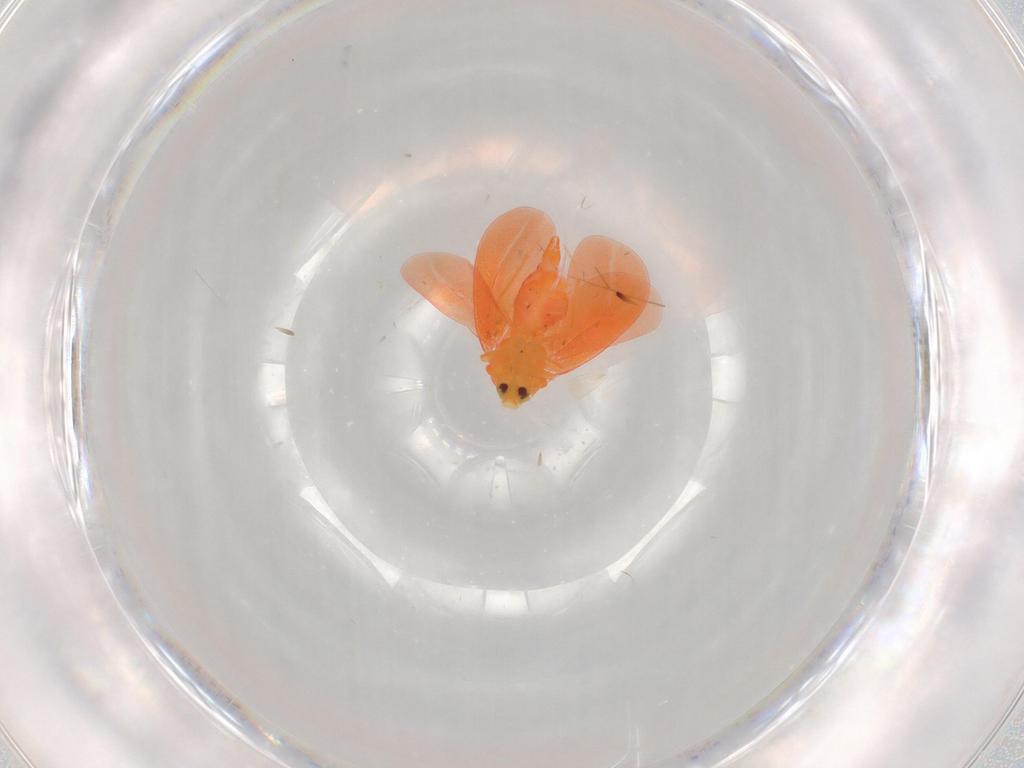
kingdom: Animalia
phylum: Arthropoda
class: Insecta
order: Hemiptera
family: Aleyrodidae
